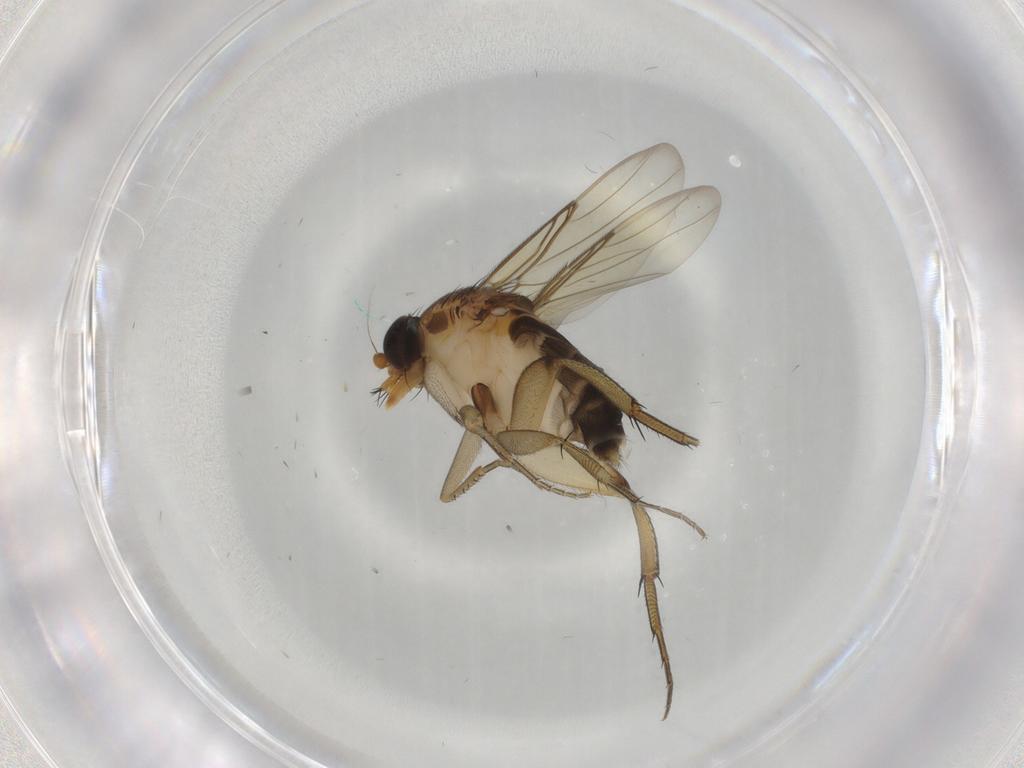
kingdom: Animalia
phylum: Arthropoda
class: Insecta
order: Diptera
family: Phoridae
